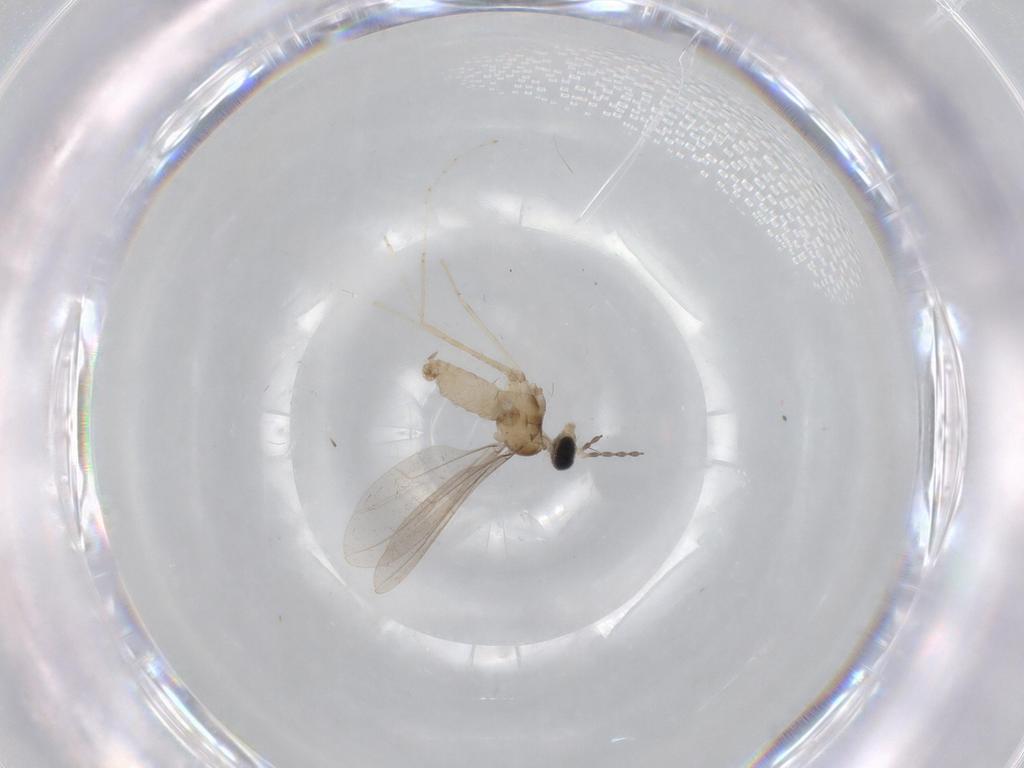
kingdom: Animalia
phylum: Arthropoda
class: Insecta
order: Diptera
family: Cecidomyiidae
